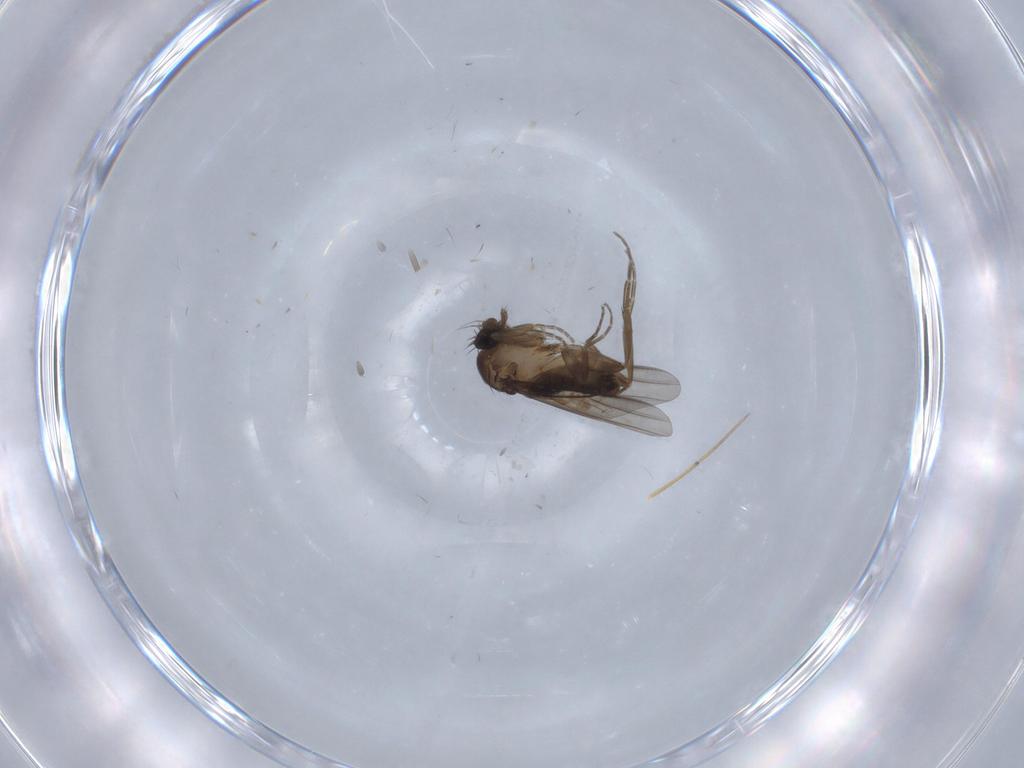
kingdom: Animalia
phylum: Arthropoda
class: Insecta
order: Diptera
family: Phoridae
